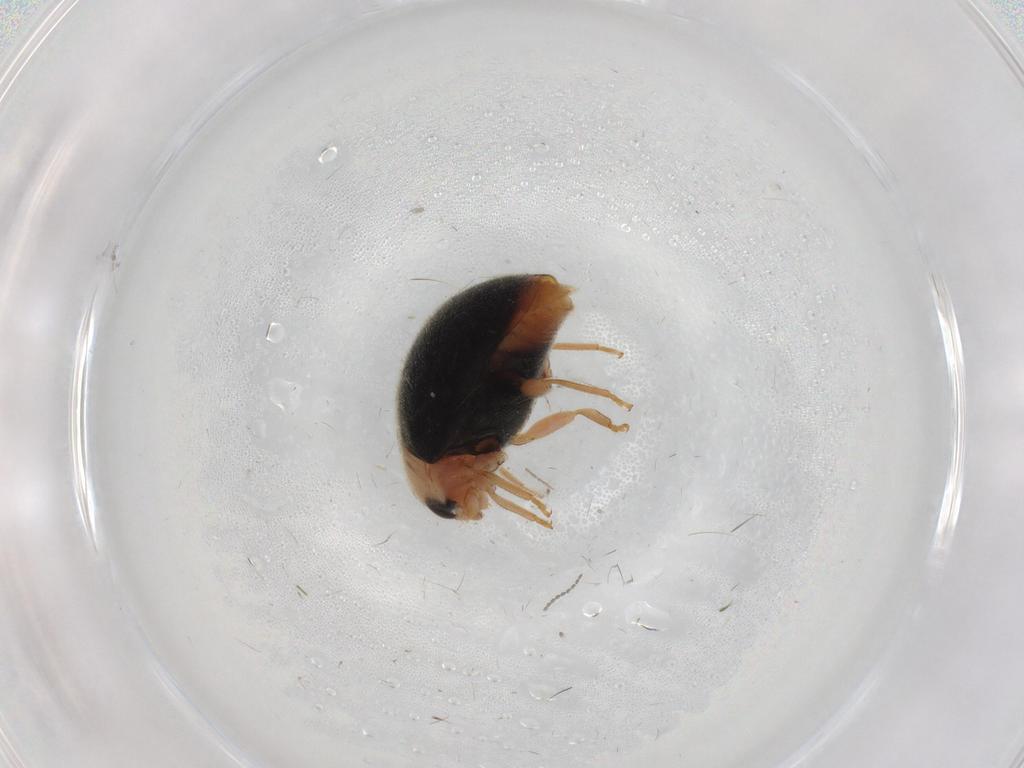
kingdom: Animalia
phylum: Arthropoda
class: Insecta
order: Coleoptera
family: Coccinellidae
